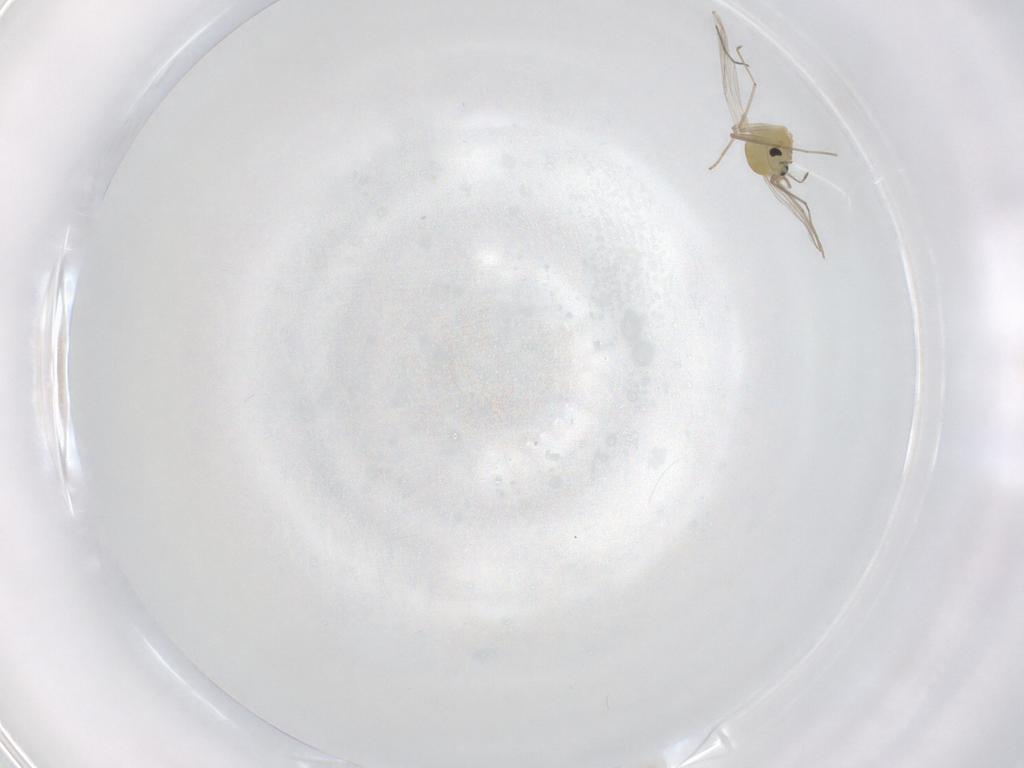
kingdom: Animalia
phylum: Arthropoda
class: Insecta
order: Diptera
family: Chironomidae
